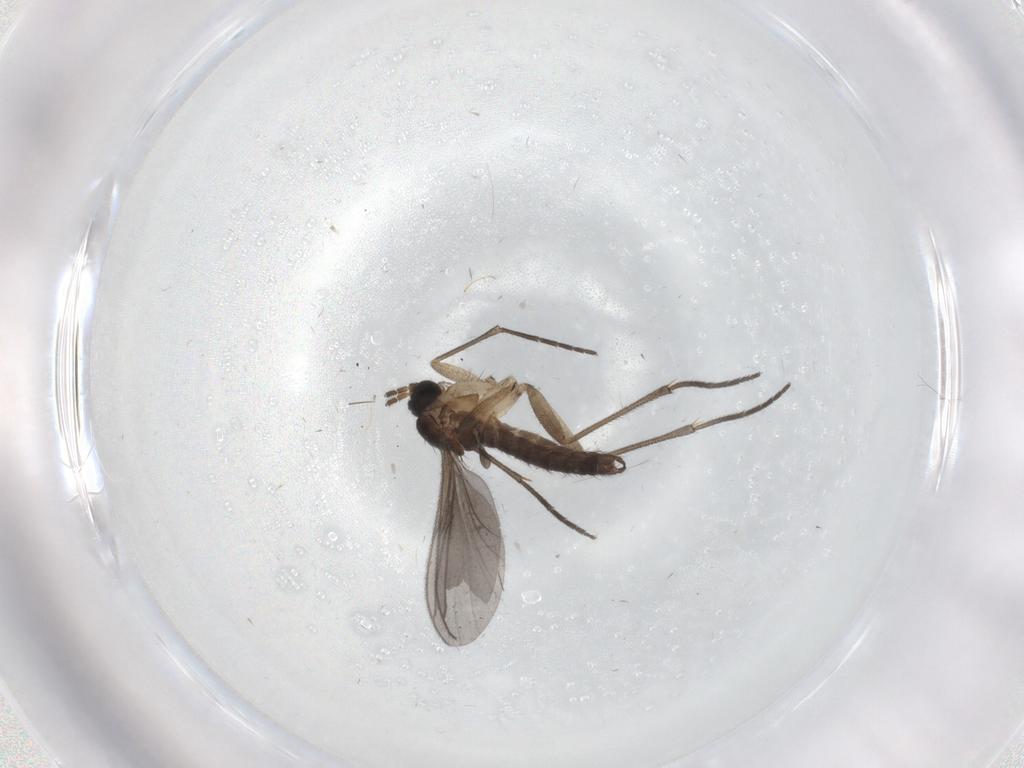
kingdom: Animalia
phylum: Arthropoda
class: Insecta
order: Diptera
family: Sciaridae
